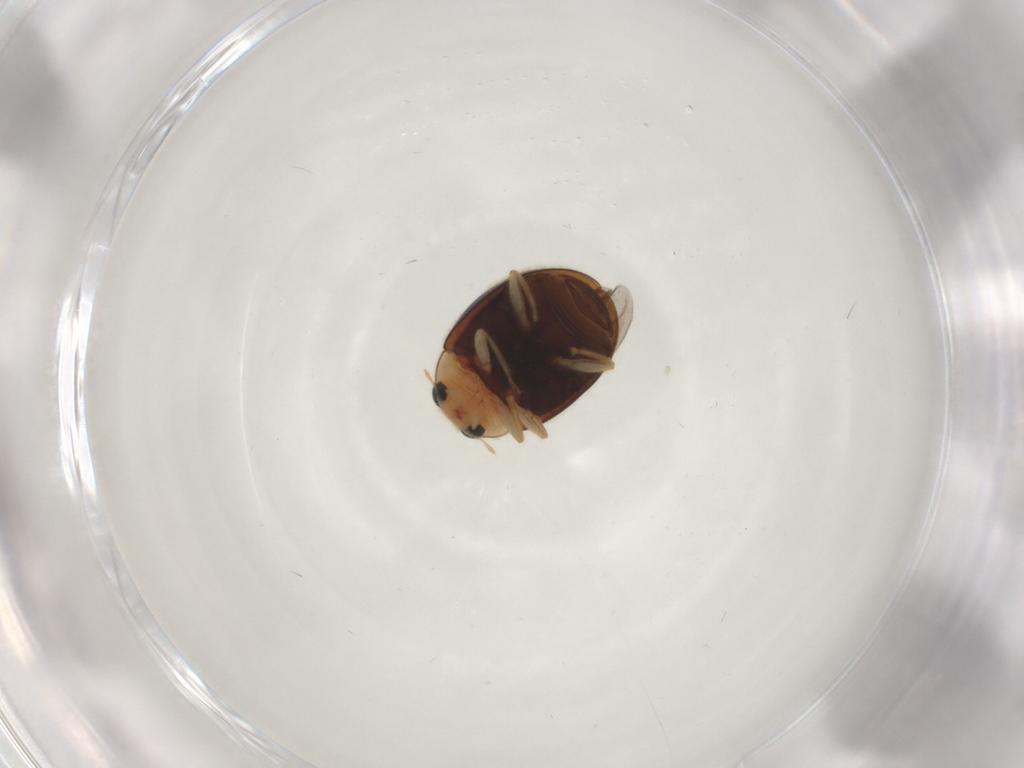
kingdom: Animalia
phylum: Arthropoda
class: Insecta
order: Coleoptera
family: Coccinellidae
